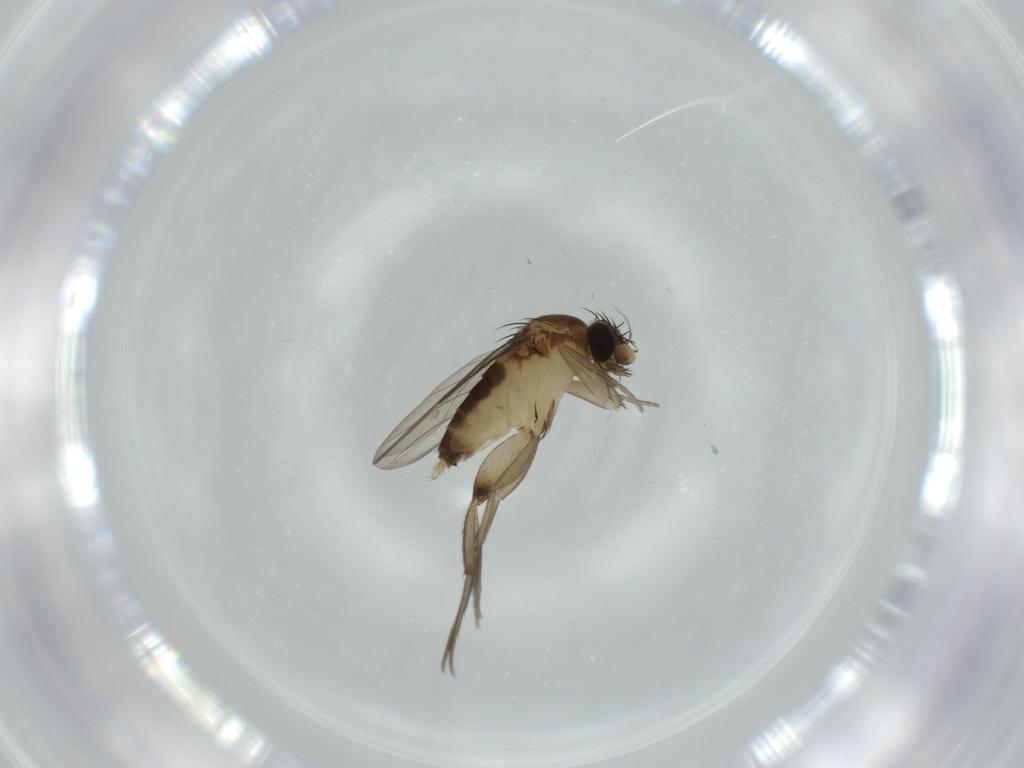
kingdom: Animalia
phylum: Arthropoda
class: Insecta
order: Diptera
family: Phoridae
